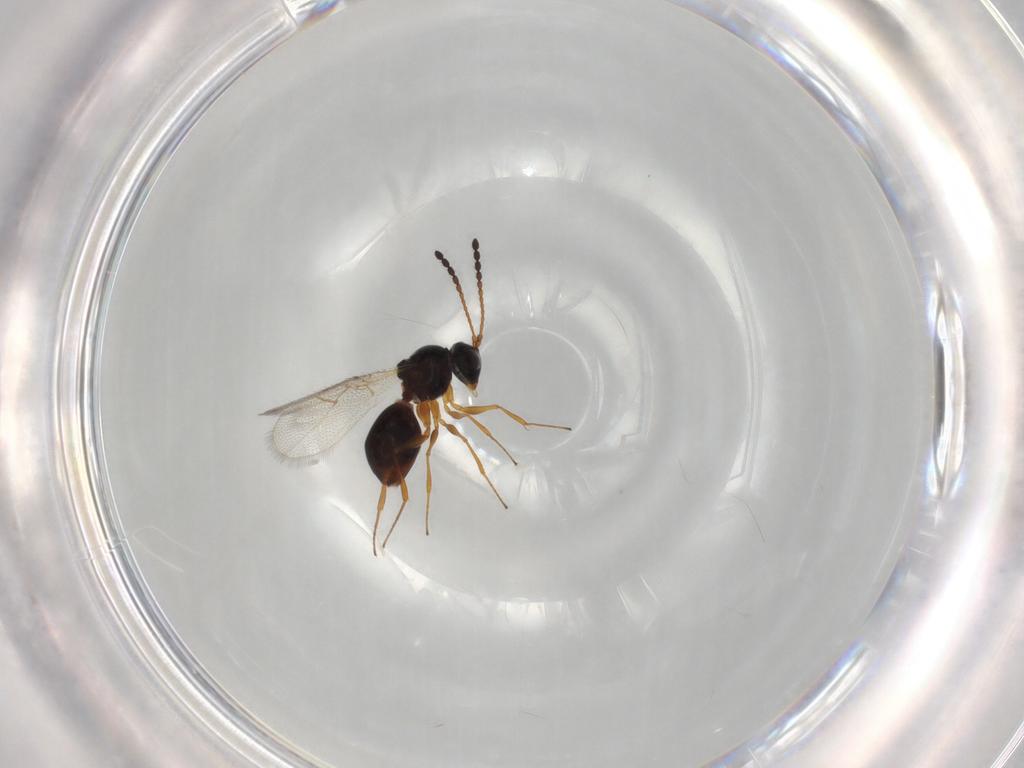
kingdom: Animalia
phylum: Arthropoda
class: Insecta
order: Hymenoptera
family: Figitidae
